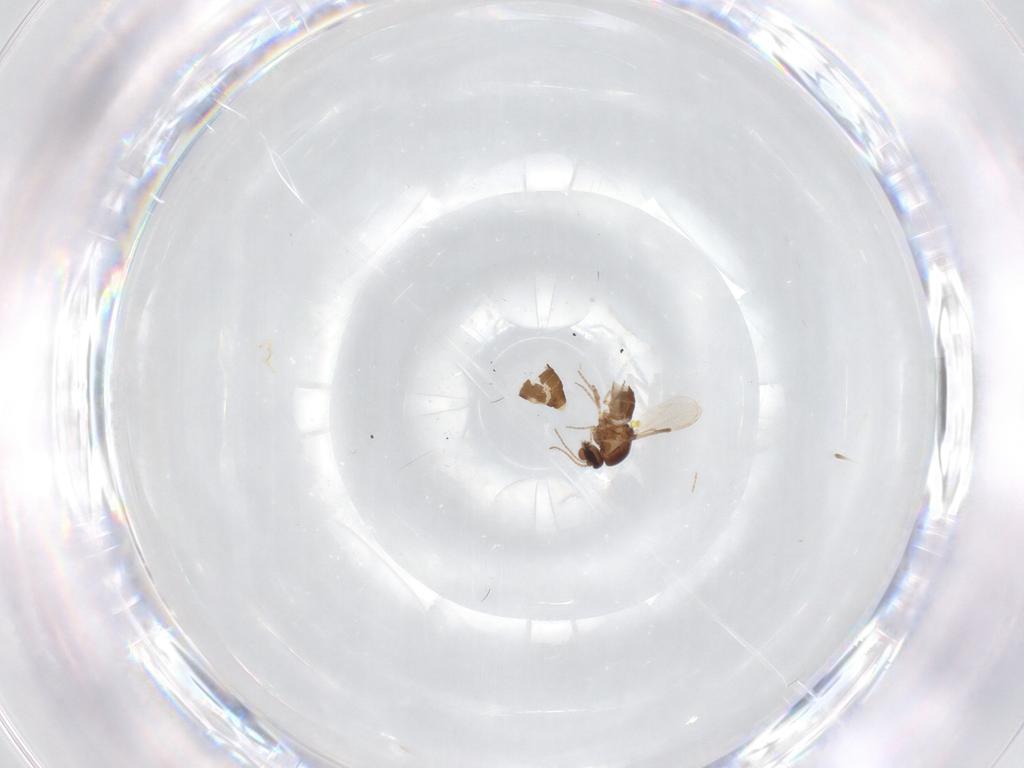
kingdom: Animalia
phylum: Arthropoda
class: Insecta
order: Diptera
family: Ceratopogonidae
